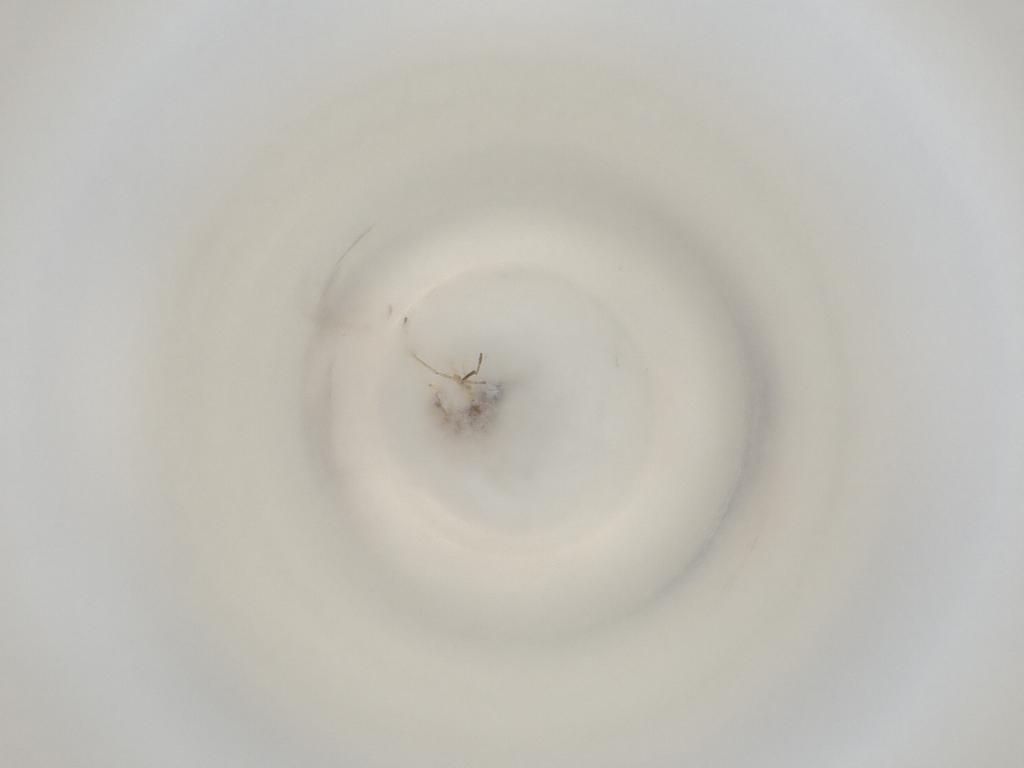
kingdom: Animalia
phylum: Arthropoda
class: Insecta
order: Diptera
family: Cecidomyiidae
